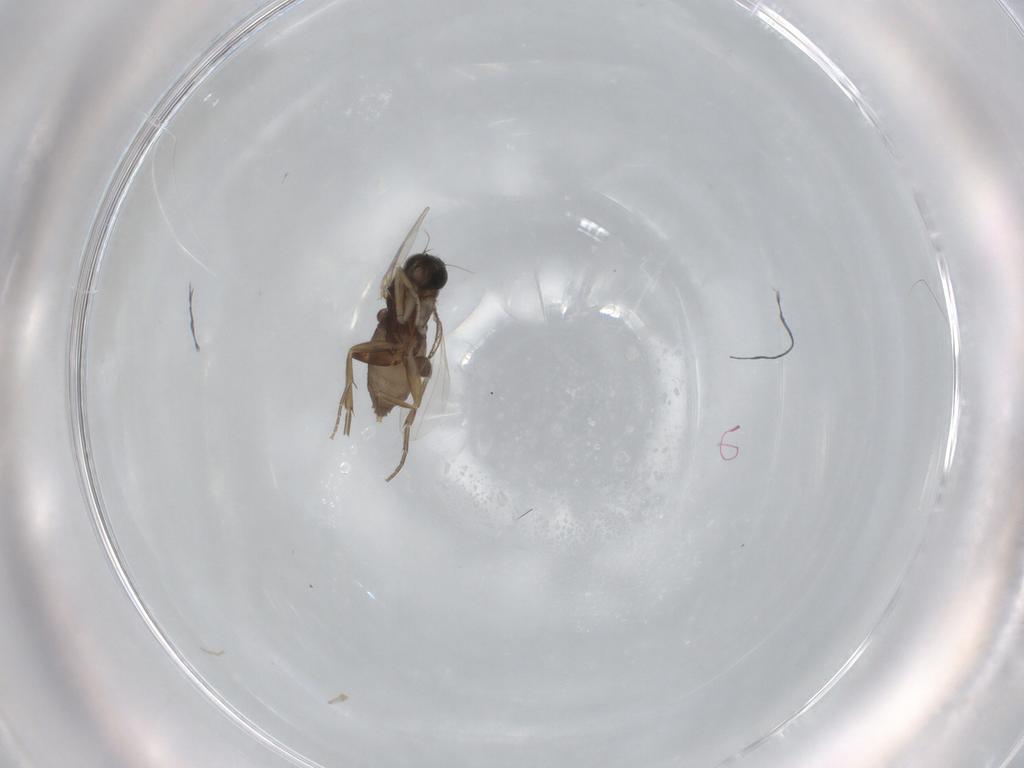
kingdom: Animalia
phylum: Arthropoda
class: Insecta
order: Diptera
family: Phoridae
